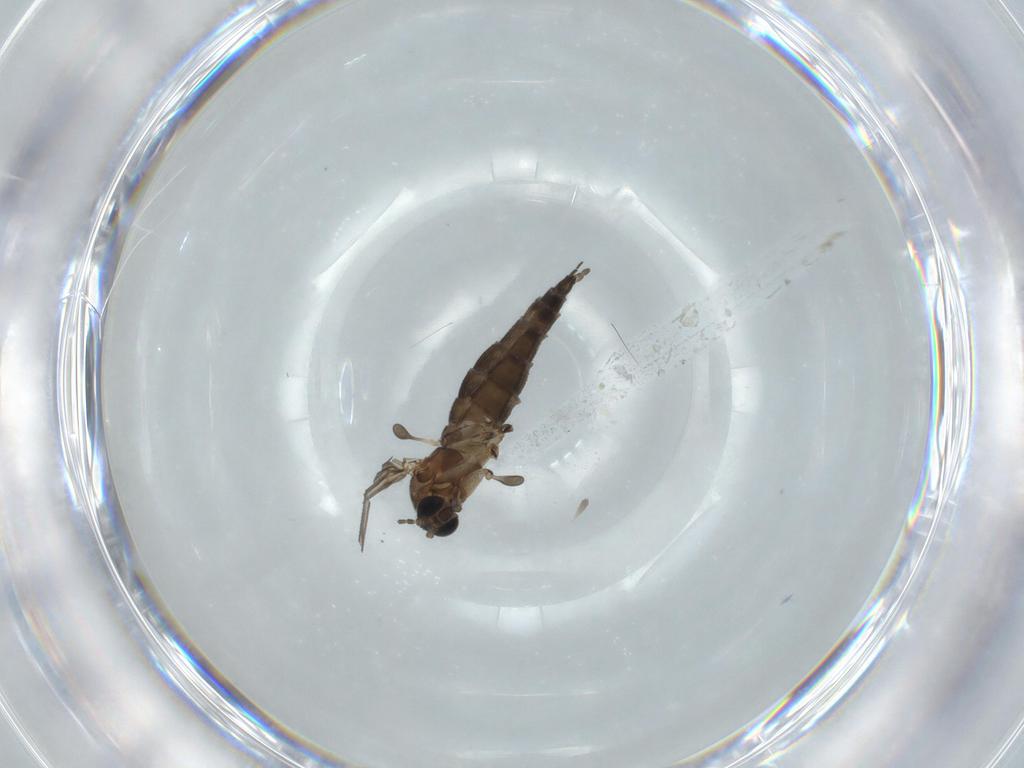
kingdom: Animalia
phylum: Arthropoda
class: Insecta
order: Diptera
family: Sciaridae
